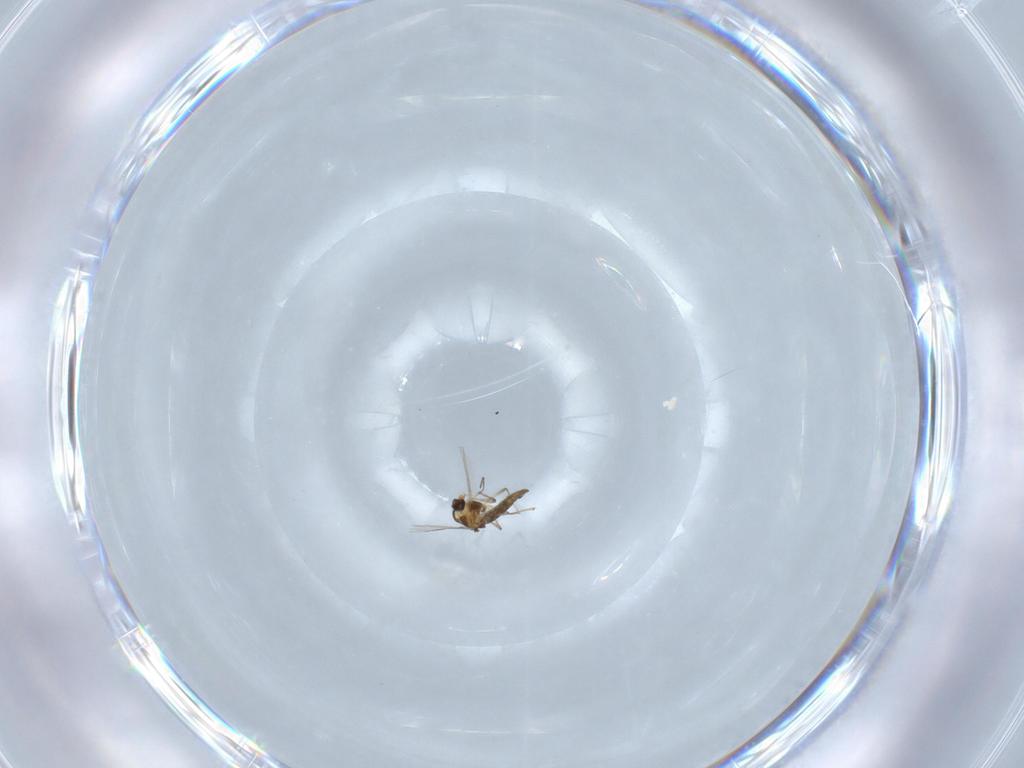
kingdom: Animalia
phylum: Arthropoda
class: Insecta
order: Diptera
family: Chironomidae
